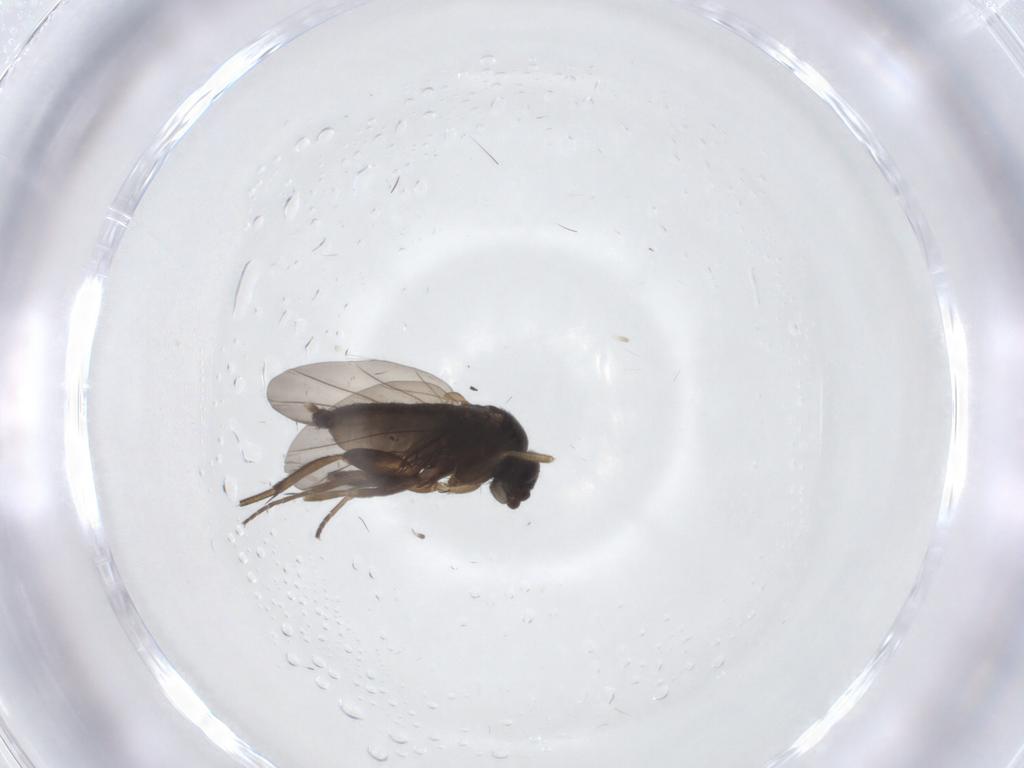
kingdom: Animalia
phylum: Arthropoda
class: Insecta
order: Diptera
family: Phoridae
